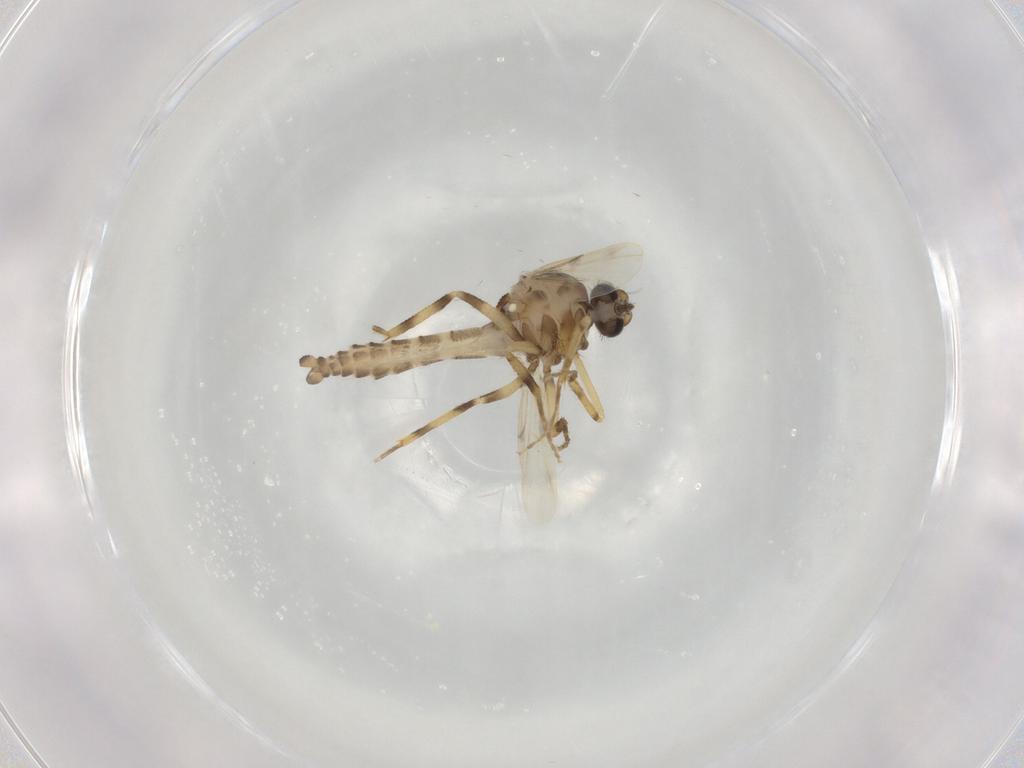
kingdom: Animalia
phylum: Arthropoda
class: Insecta
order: Diptera
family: Ceratopogonidae
